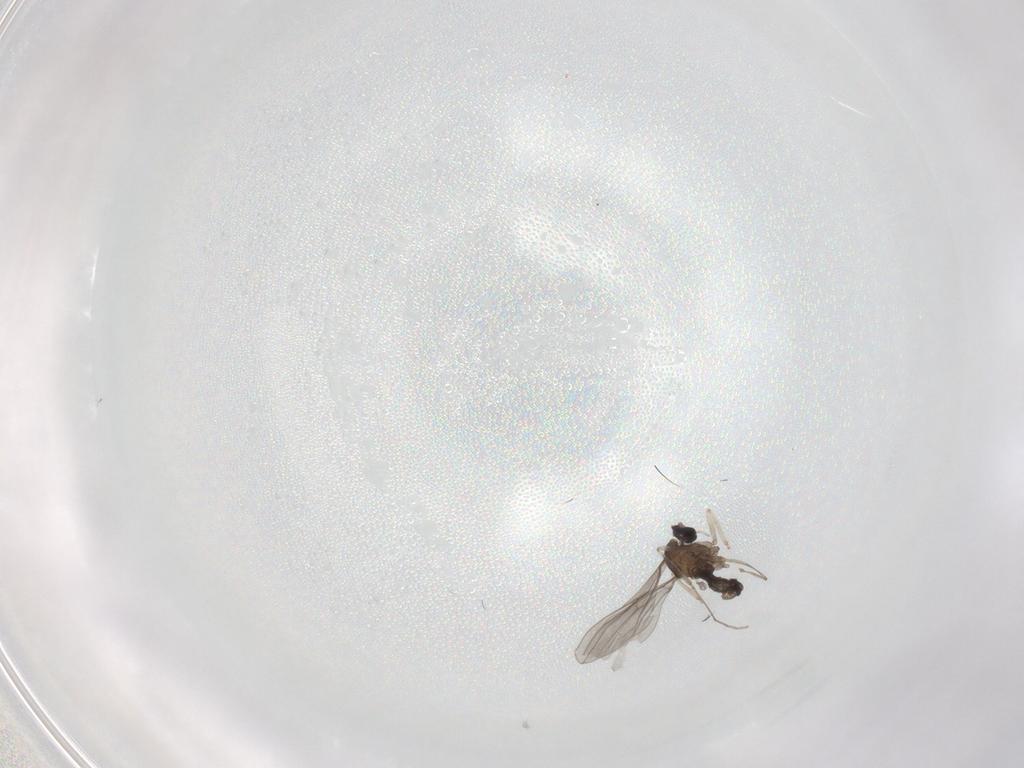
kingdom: Animalia
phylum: Arthropoda
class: Insecta
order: Diptera
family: Cecidomyiidae
